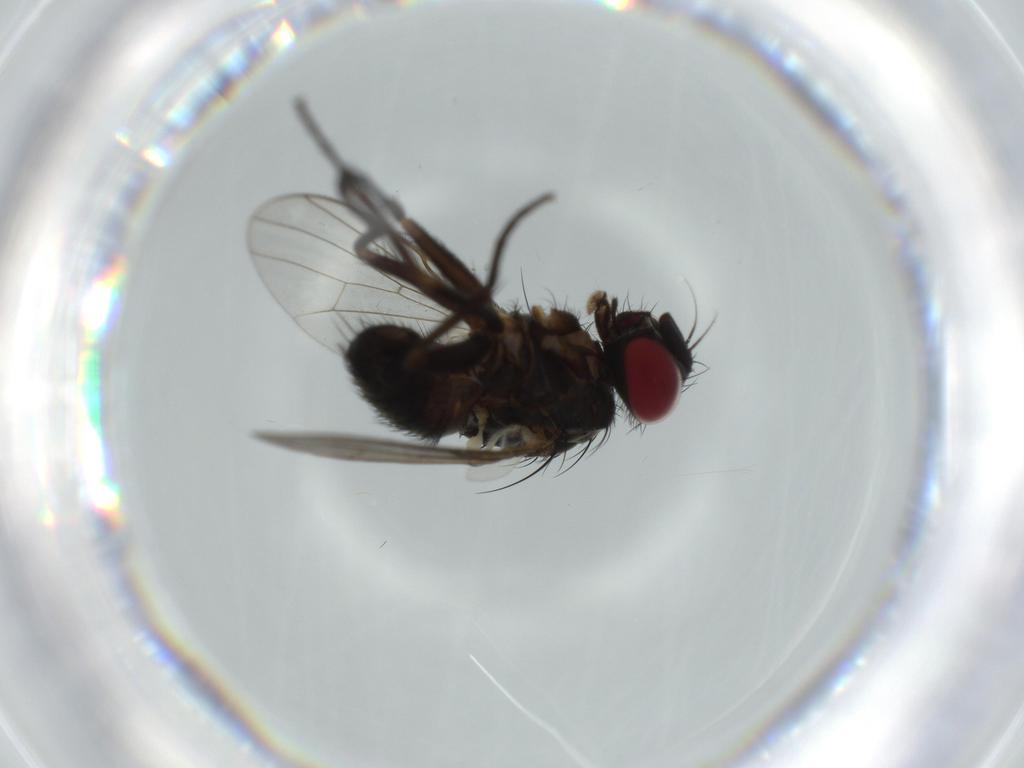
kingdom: Animalia
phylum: Arthropoda
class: Insecta
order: Diptera
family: Muscidae
